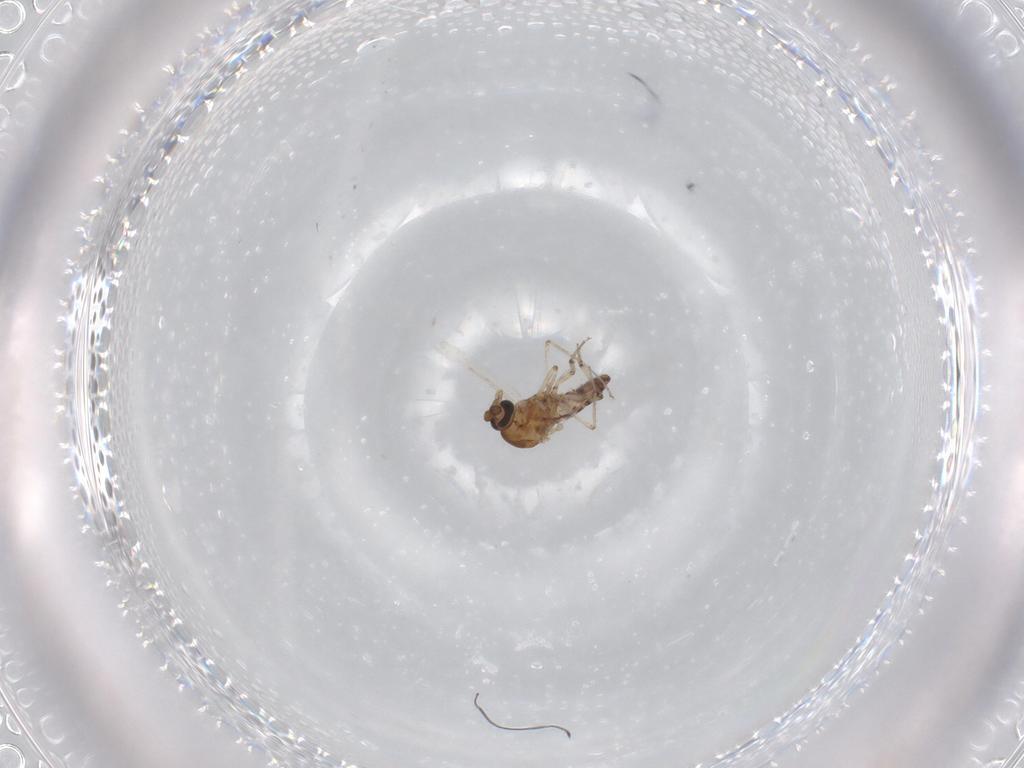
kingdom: Animalia
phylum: Arthropoda
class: Insecta
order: Diptera
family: Ceratopogonidae
